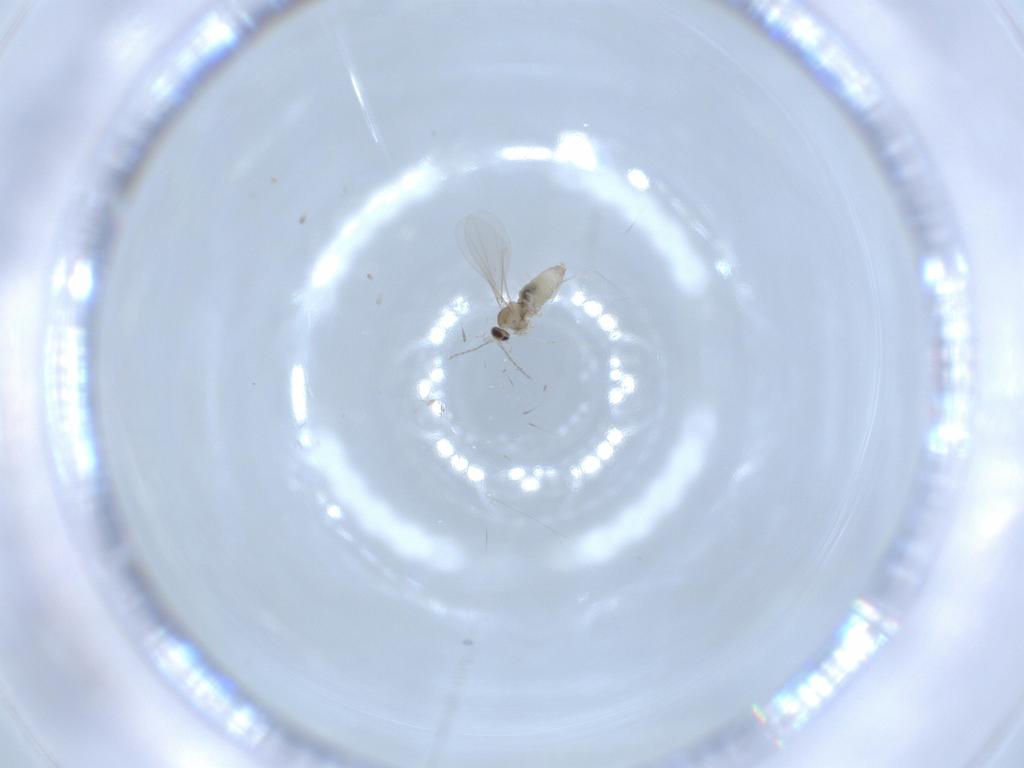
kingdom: Animalia
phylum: Arthropoda
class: Insecta
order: Diptera
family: Cecidomyiidae
